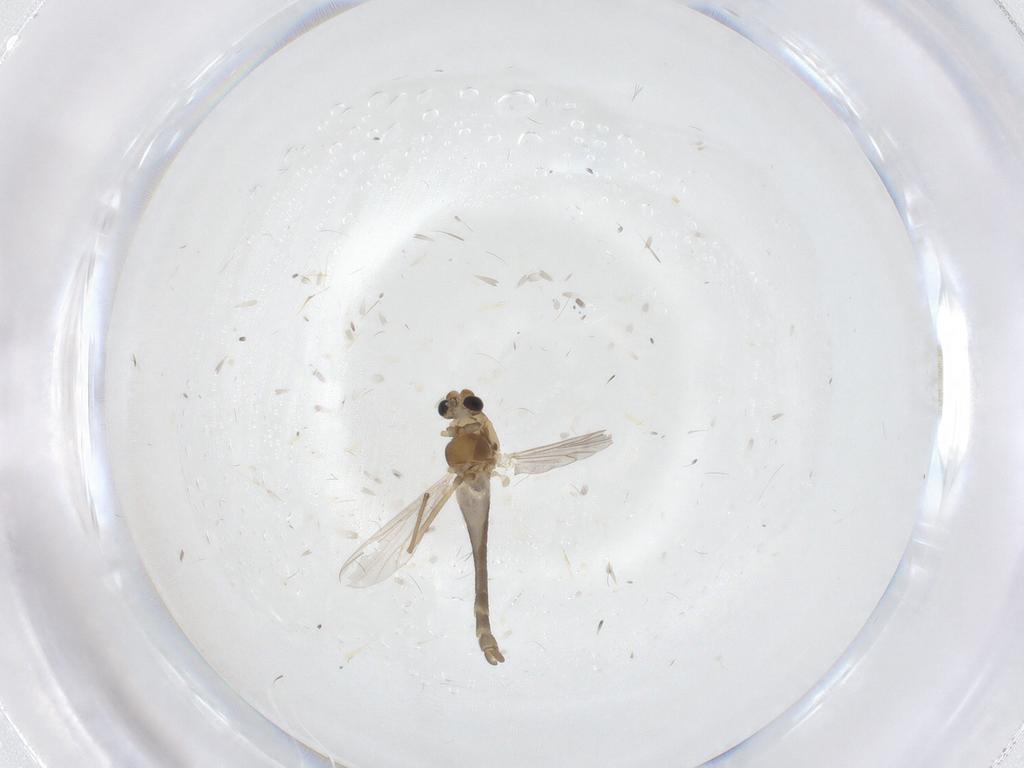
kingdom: Animalia
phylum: Arthropoda
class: Insecta
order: Diptera
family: Chironomidae
